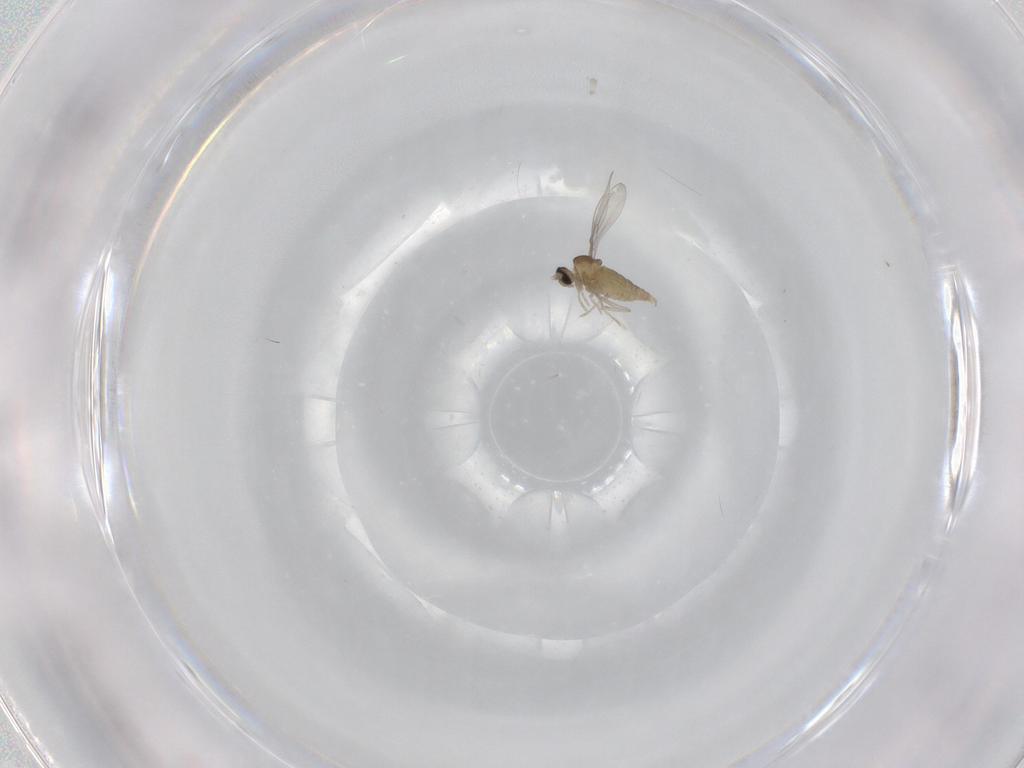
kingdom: Animalia
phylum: Arthropoda
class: Insecta
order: Diptera
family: Cecidomyiidae
